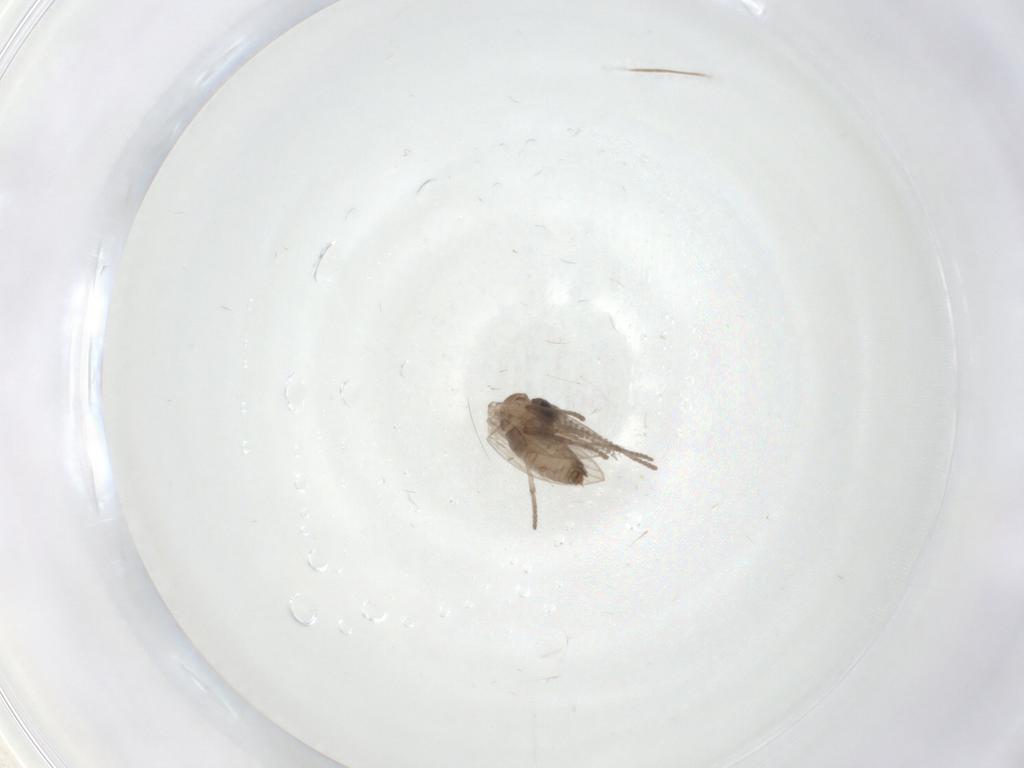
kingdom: Animalia
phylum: Arthropoda
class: Insecta
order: Diptera
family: Psychodidae
